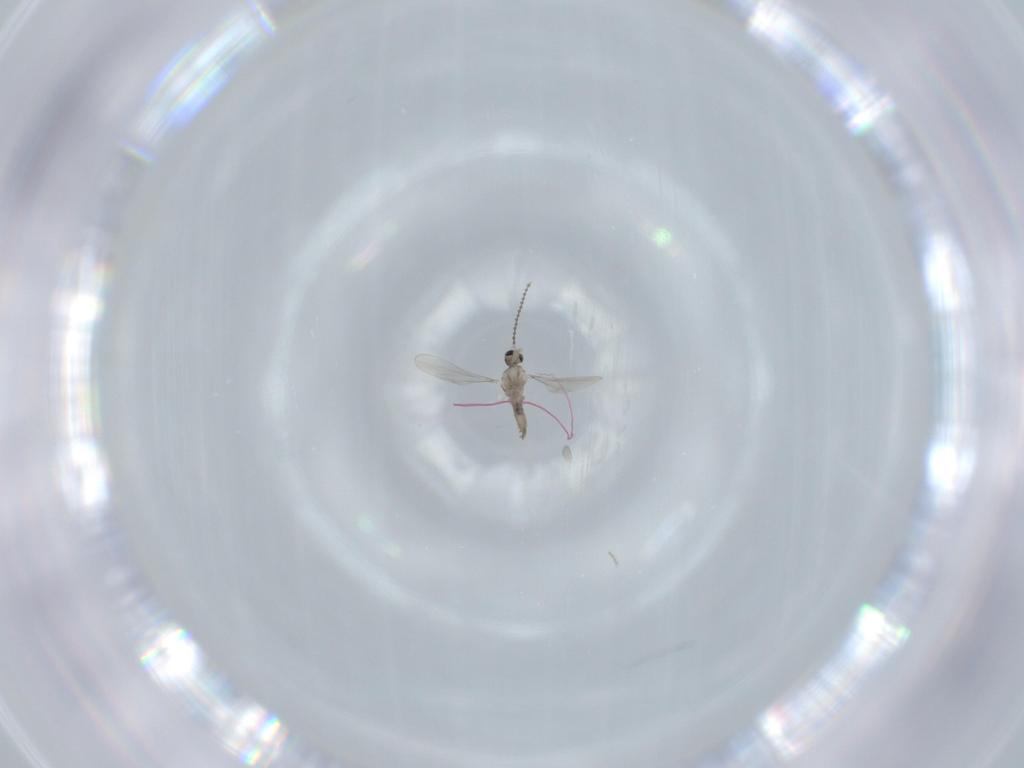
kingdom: Animalia
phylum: Arthropoda
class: Insecta
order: Diptera
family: Cecidomyiidae
